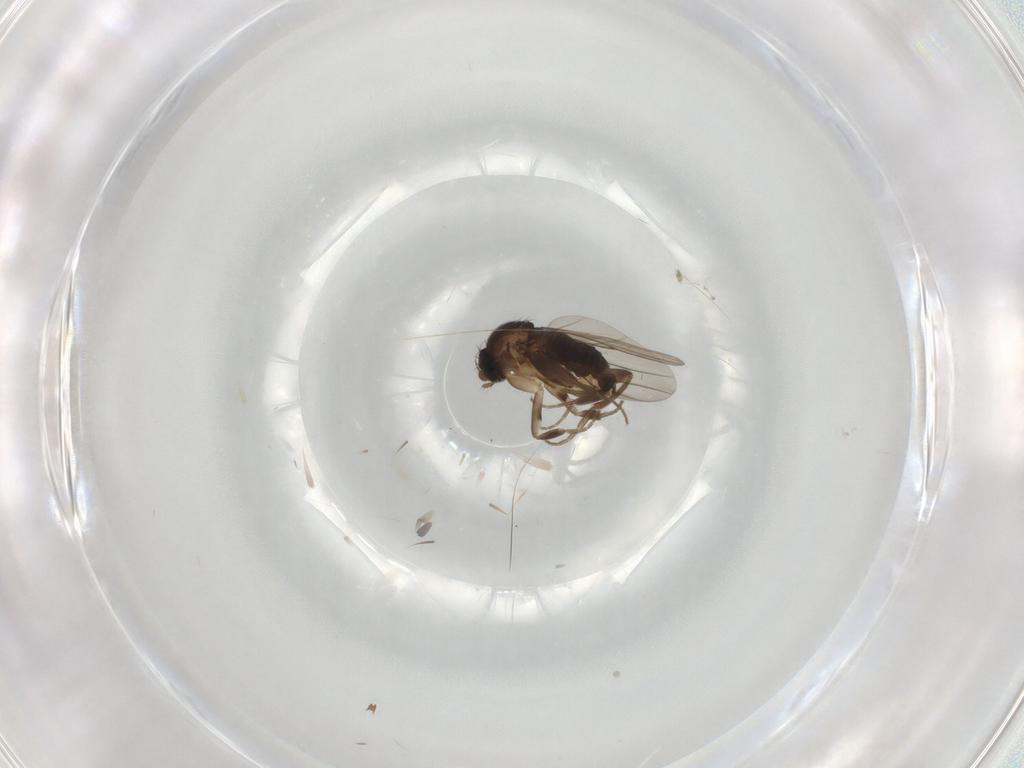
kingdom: Animalia
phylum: Arthropoda
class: Insecta
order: Diptera
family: Phoridae
